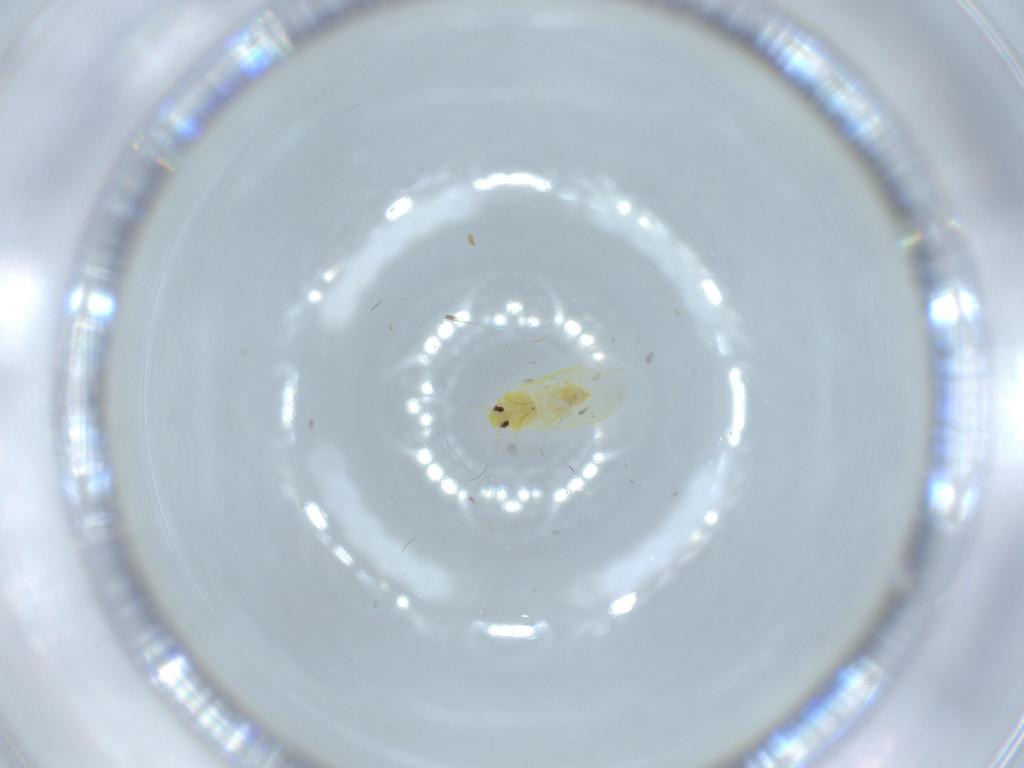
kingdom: Animalia
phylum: Arthropoda
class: Insecta
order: Hemiptera
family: Aleyrodidae
